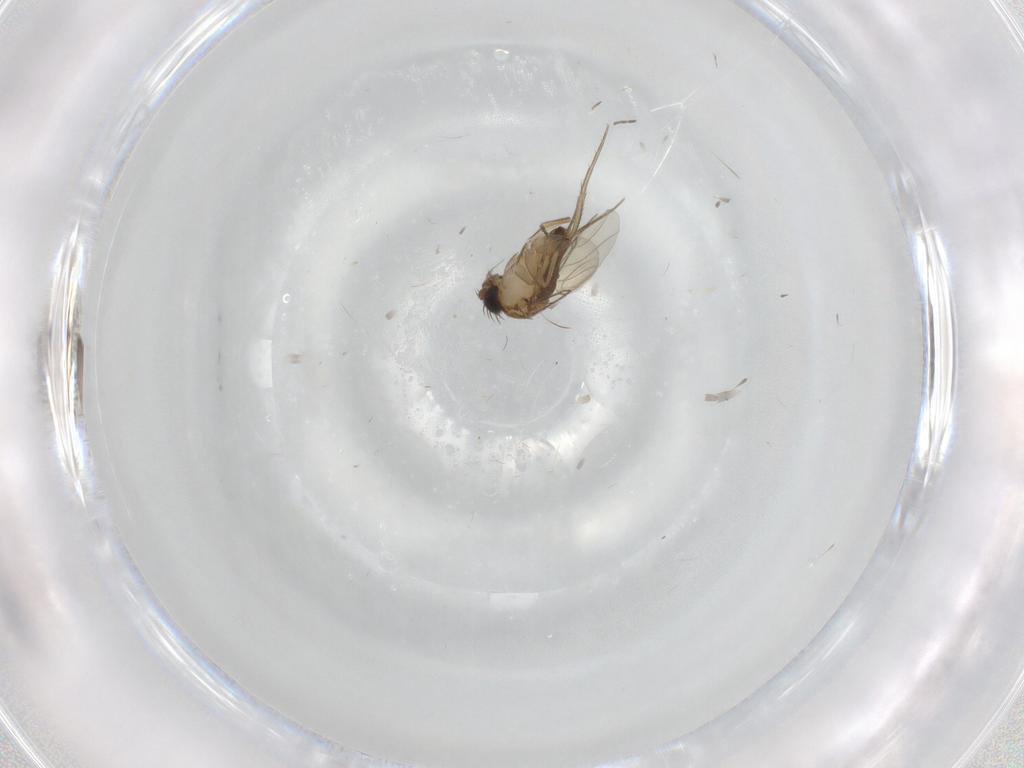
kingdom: Animalia
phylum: Arthropoda
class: Insecta
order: Diptera
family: Phoridae
